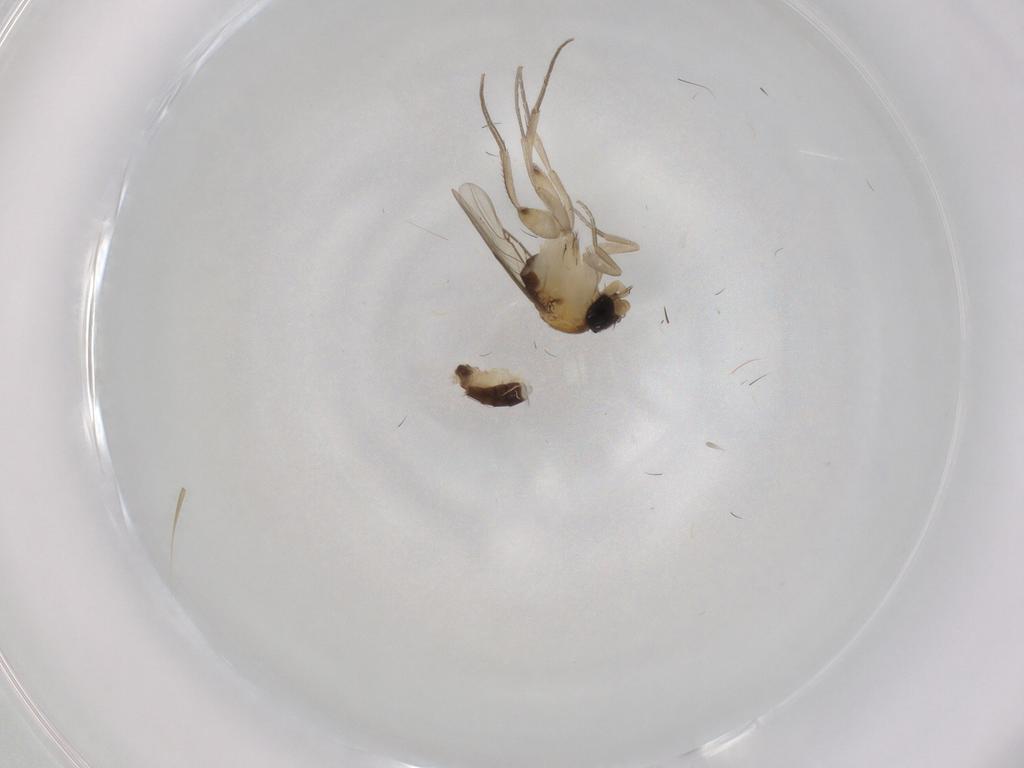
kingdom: Animalia
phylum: Arthropoda
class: Insecta
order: Diptera
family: Phoridae
